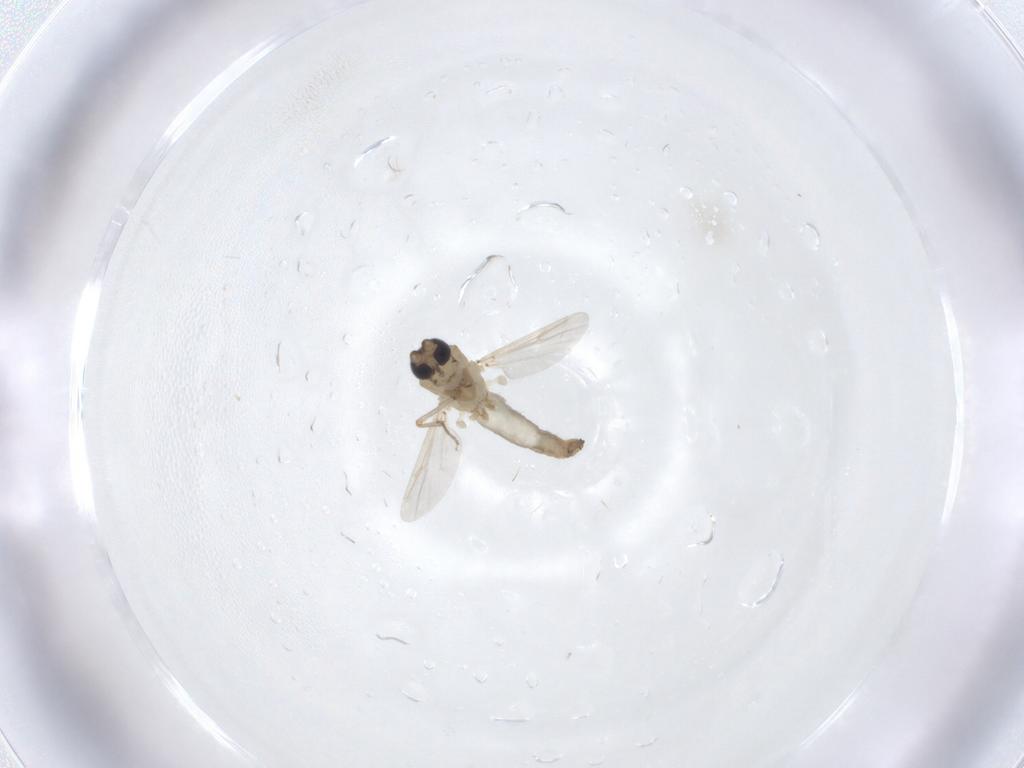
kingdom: Animalia
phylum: Arthropoda
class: Insecta
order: Diptera
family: Ceratopogonidae
